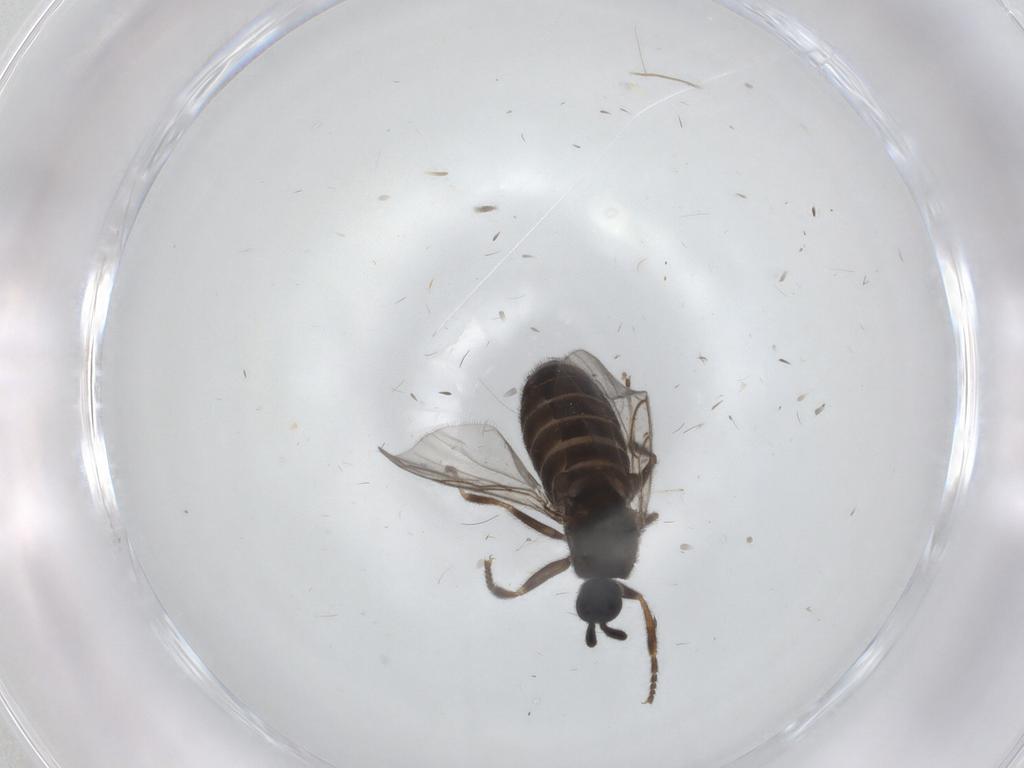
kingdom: Animalia
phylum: Arthropoda
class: Insecta
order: Diptera
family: Scatopsidae
